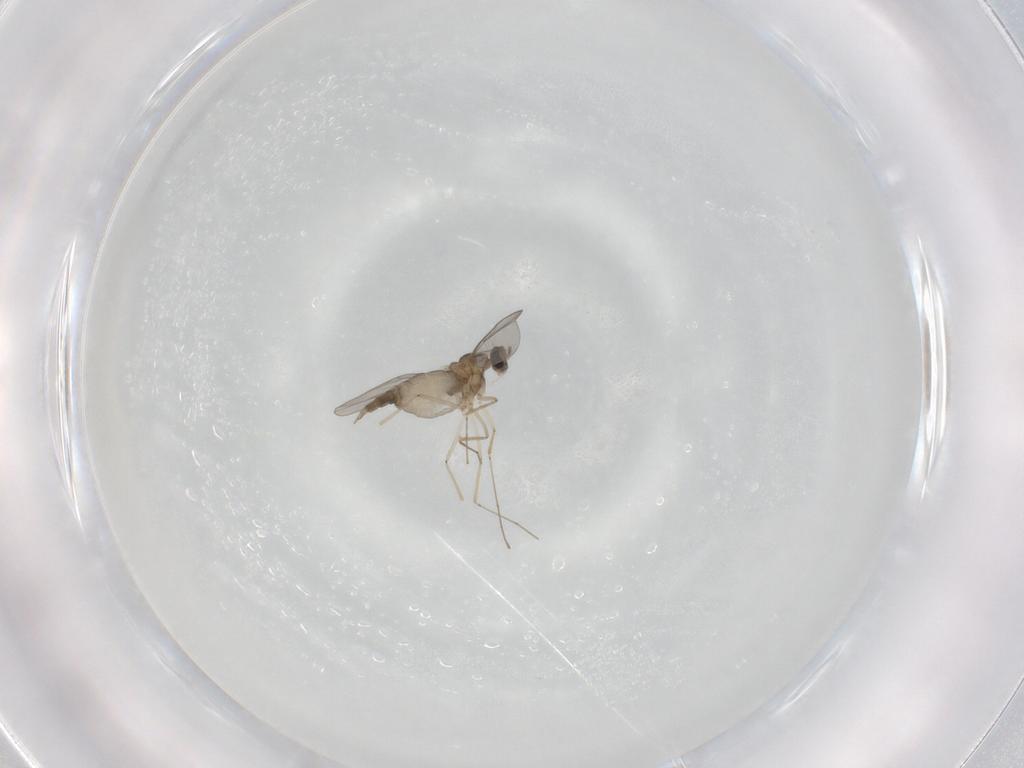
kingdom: Animalia
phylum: Arthropoda
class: Insecta
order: Diptera
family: Cecidomyiidae
